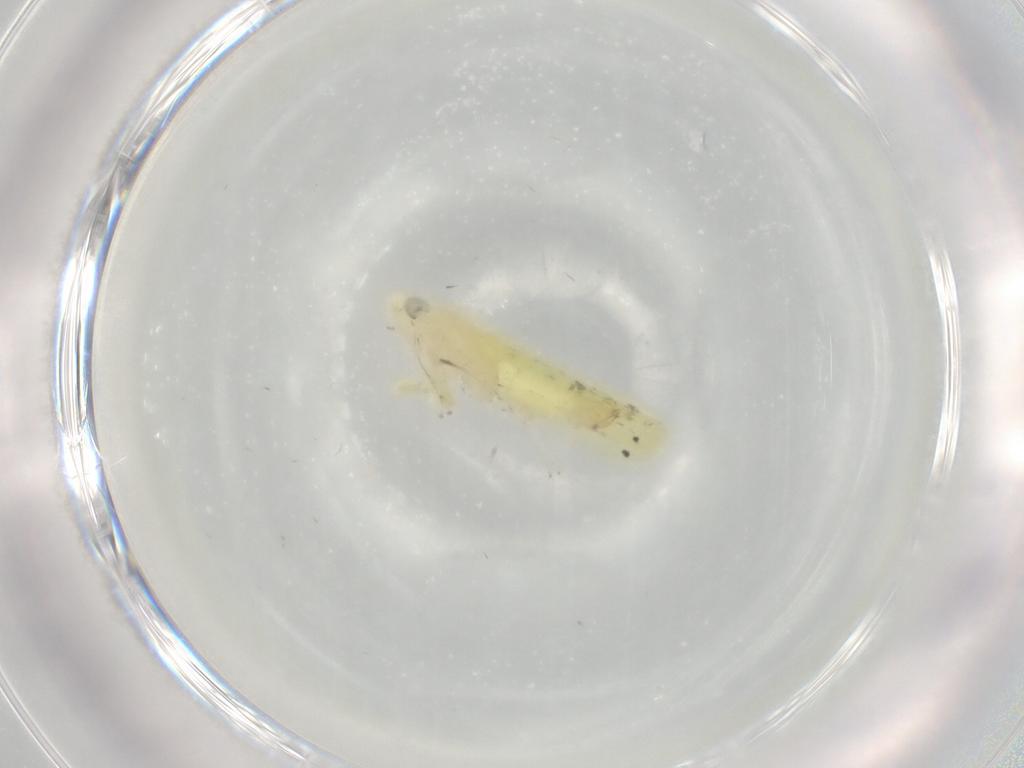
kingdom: Animalia
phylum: Arthropoda
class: Insecta
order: Hemiptera
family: Cicadellidae
